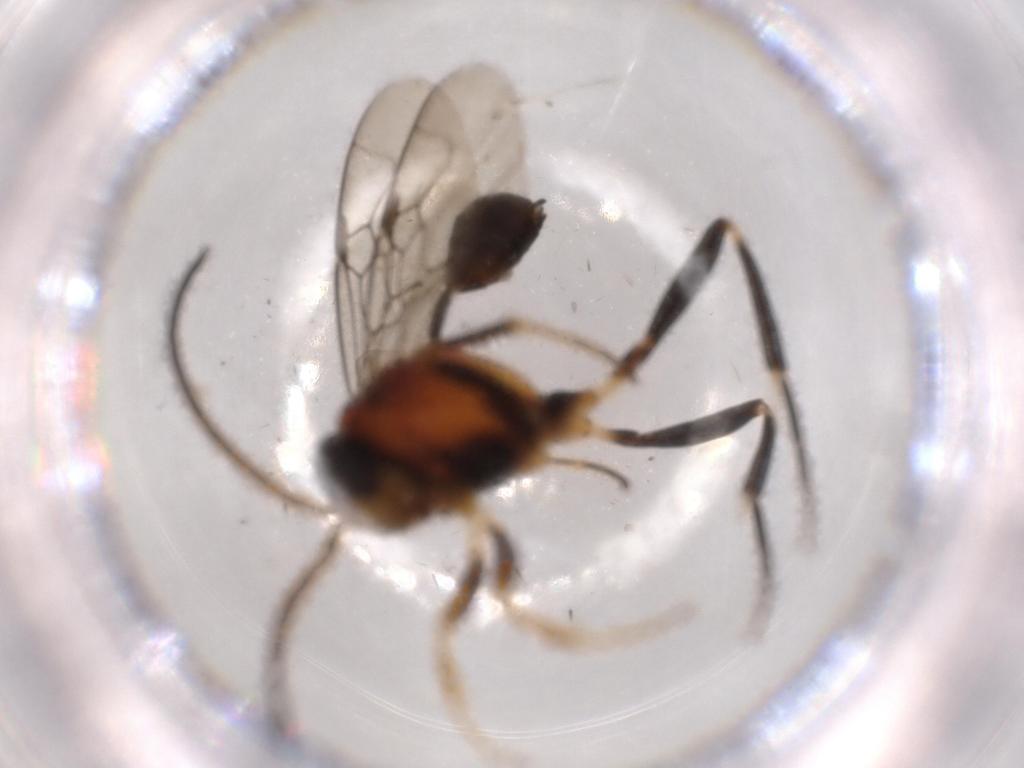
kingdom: Animalia
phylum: Arthropoda
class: Insecta
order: Hymenoptera
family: Evaniidae
